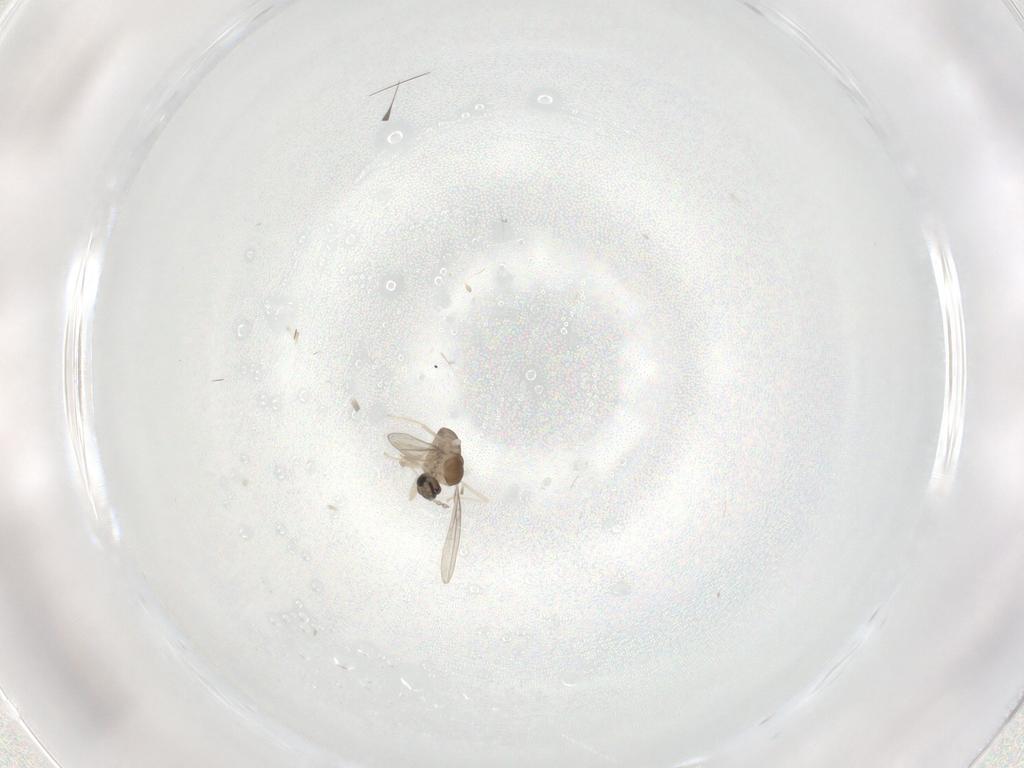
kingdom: Animalia
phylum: Arthropoda
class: Insecta
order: Diptera
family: Cecidomyiidae
